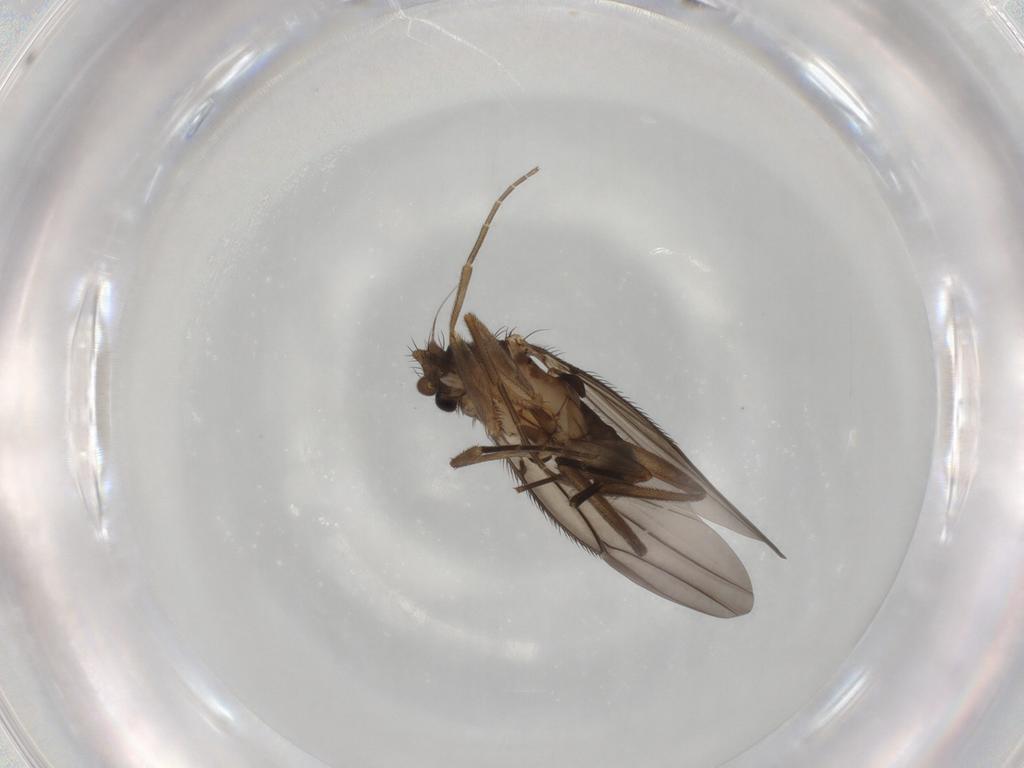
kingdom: Animalia
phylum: Arthropoda
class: Insecta
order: Diptera
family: Phoridae
